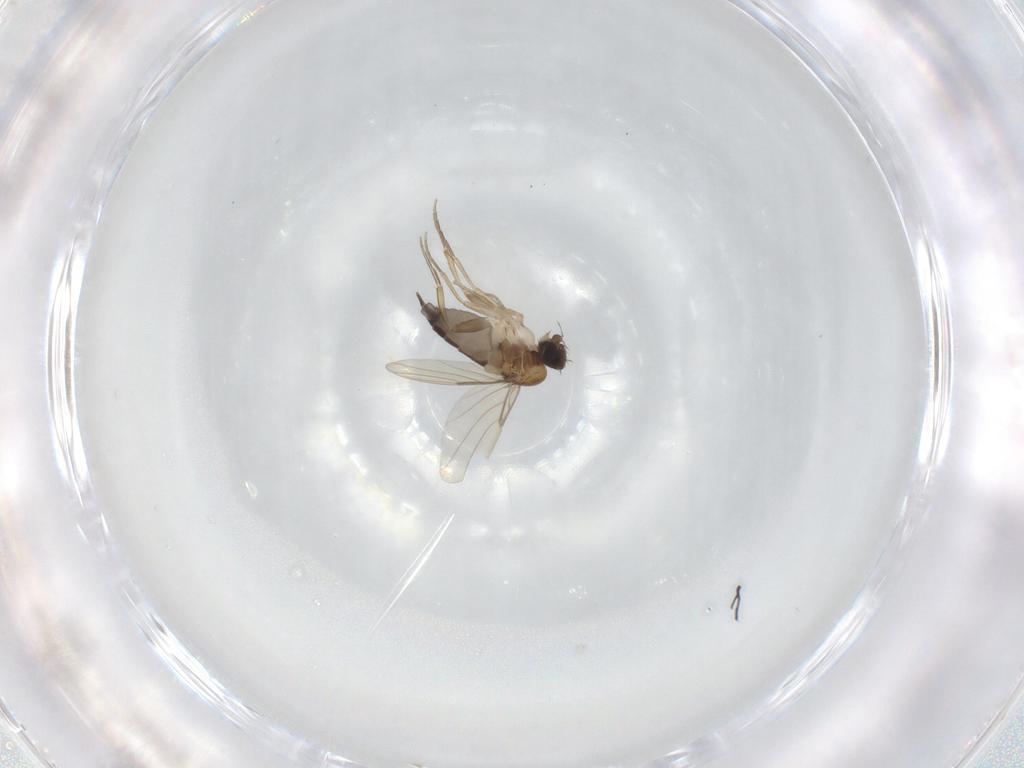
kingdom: Animalia
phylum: Arthropoda
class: Insecta
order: Diptera
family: Phoridae
